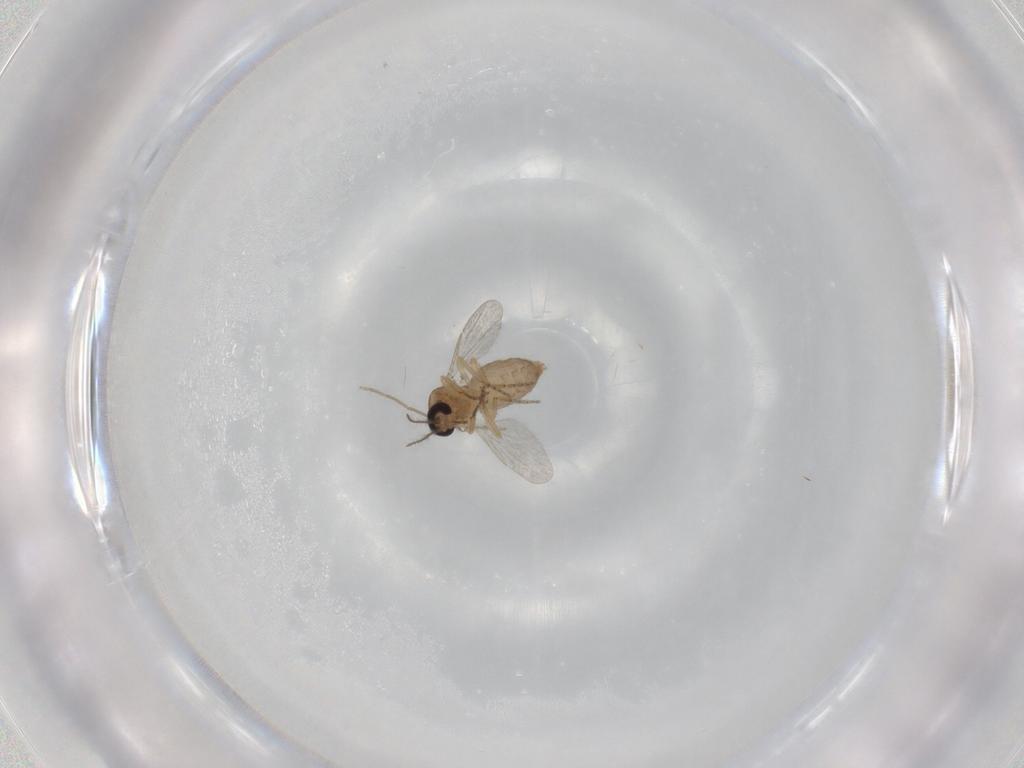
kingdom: Animalia
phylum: Arthropoda
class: Insecta
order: Diptera
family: Chironomidae
